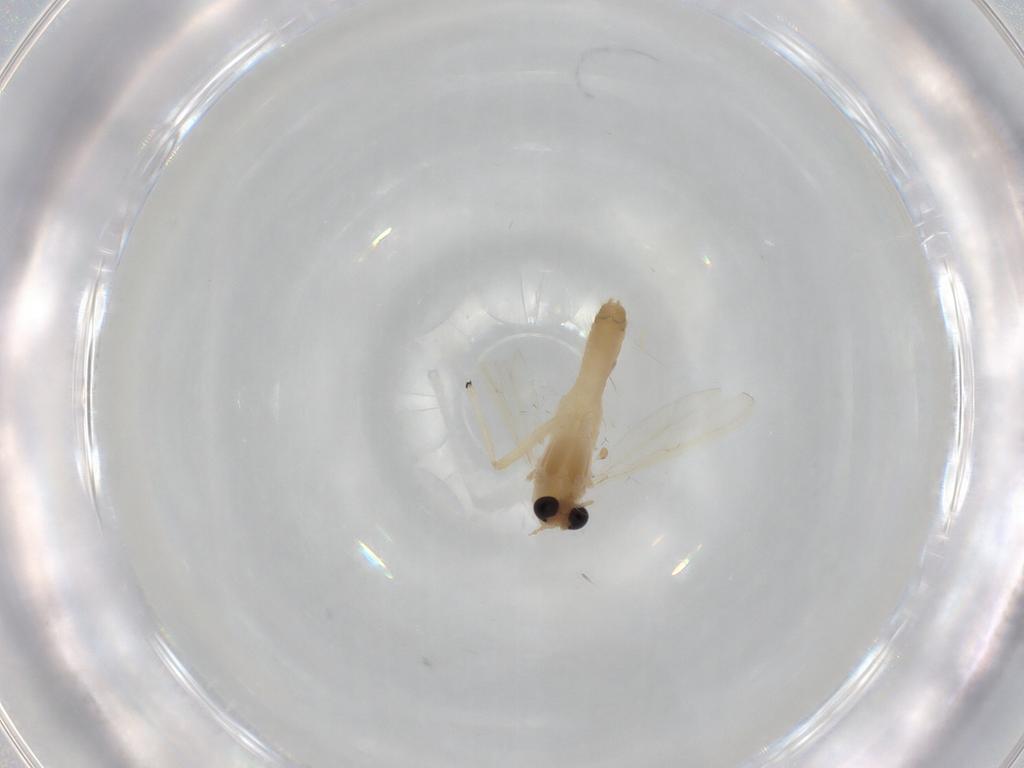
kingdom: Animalia
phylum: Arthropoda
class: Insecta
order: Diptera
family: Chironomidae
